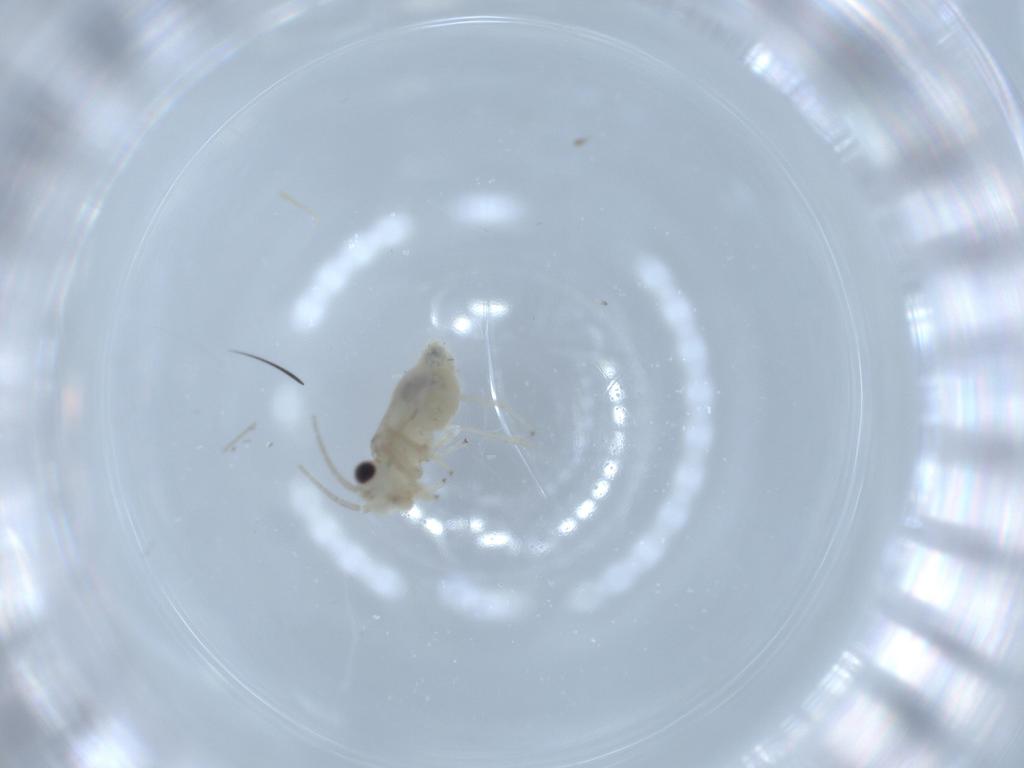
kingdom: Animalia
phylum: Arthropoda
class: Insecta
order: Psocodea
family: Caeciliusidae
